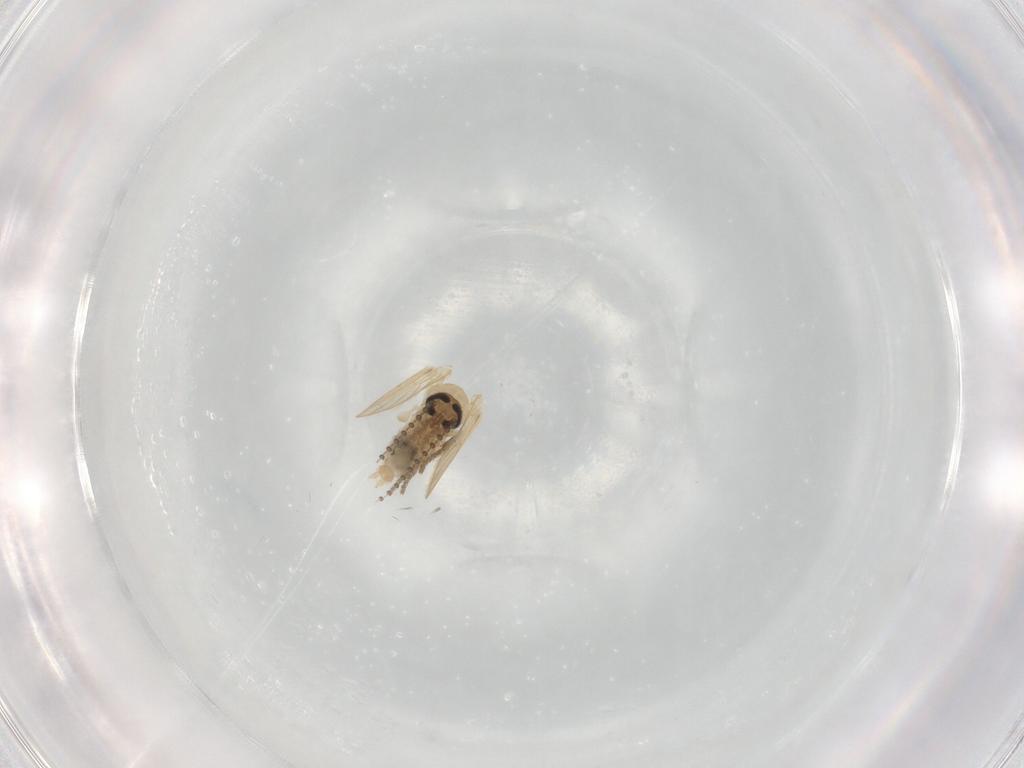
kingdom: Animalia
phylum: Arthropoda
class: Insecta
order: Diptera
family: Psychodidae
